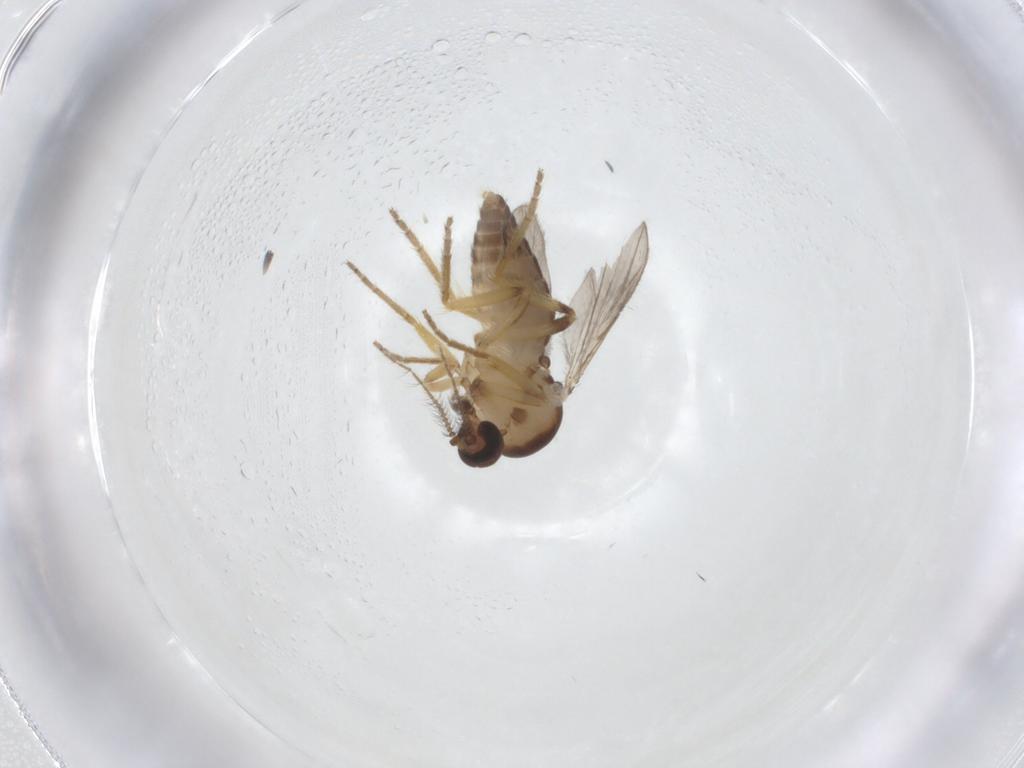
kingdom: Animalia
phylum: Arthropoda
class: Insecta
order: Diptera
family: Ceratopogonidae
